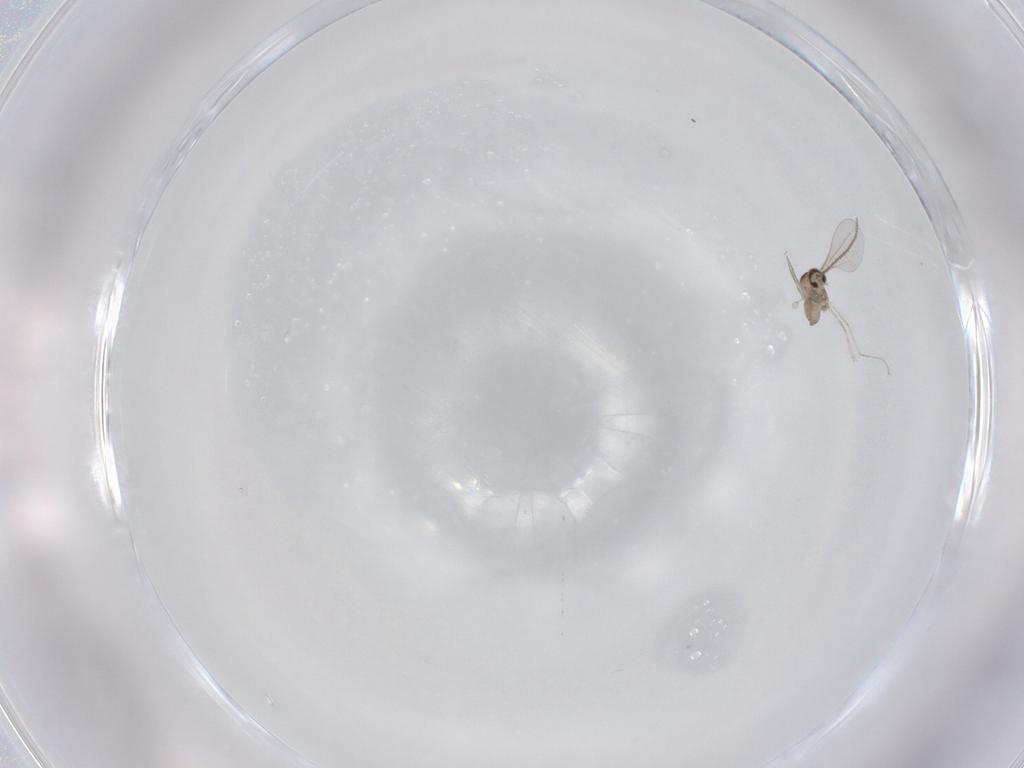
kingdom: Animalia
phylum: Arthropoda
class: Insecta
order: Diptera
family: Cecidomyiidae
